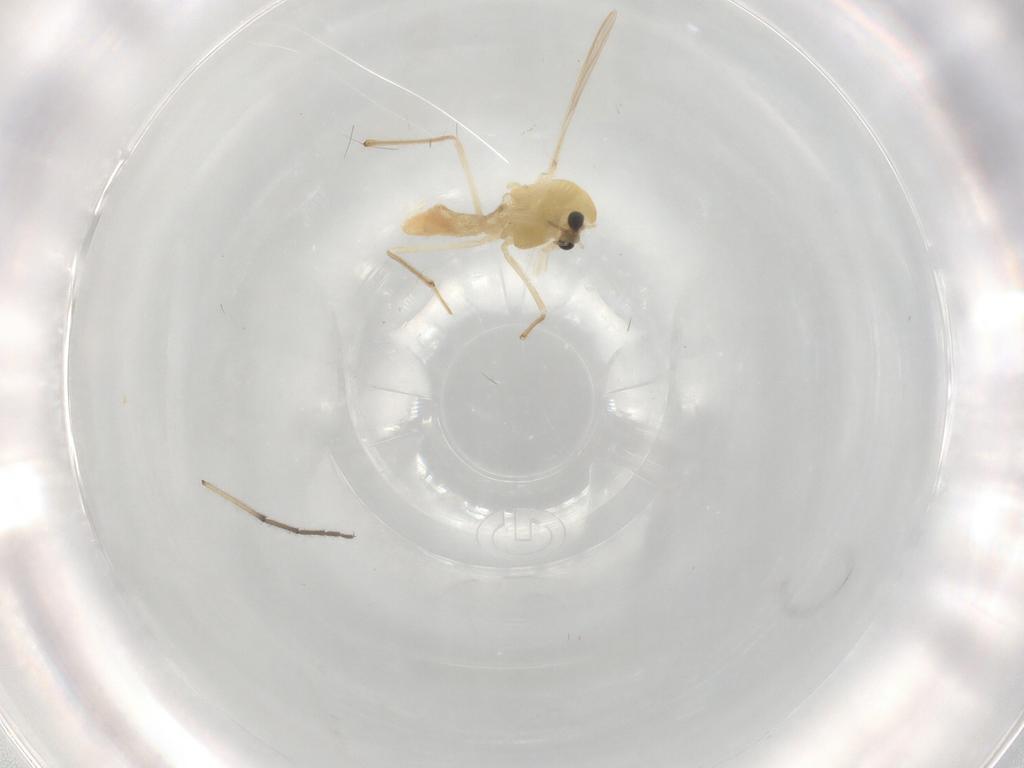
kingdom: Animalia
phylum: Arthropoda
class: Insecta
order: Diptera
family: Chironomidae
